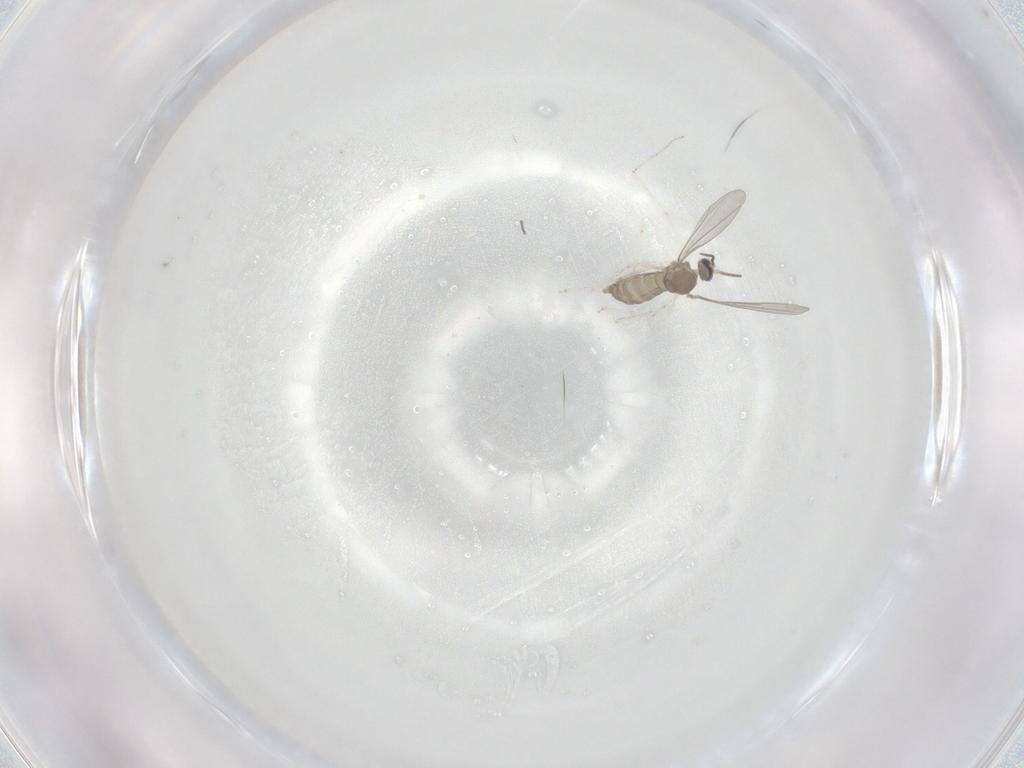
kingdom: Animalia
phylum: Arthropoda
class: Insecta
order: Diptera
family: Cecidomyiidae
